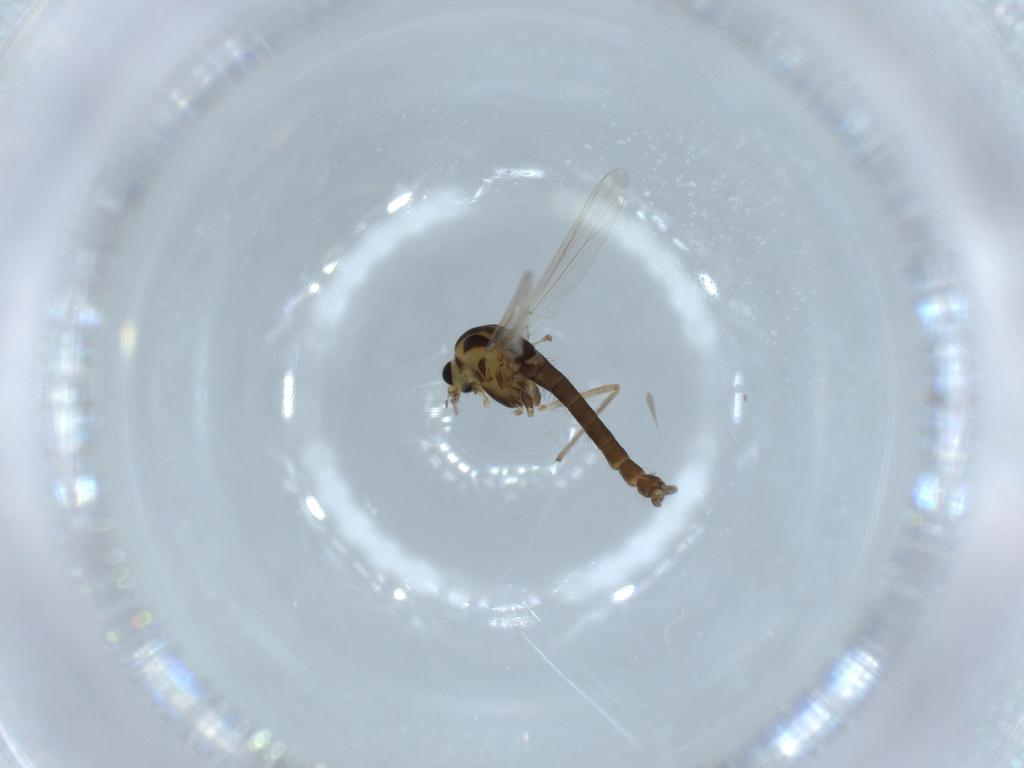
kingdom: Animalia
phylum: Arthropoda
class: Insecta
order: Diptera
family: Chironomidae
